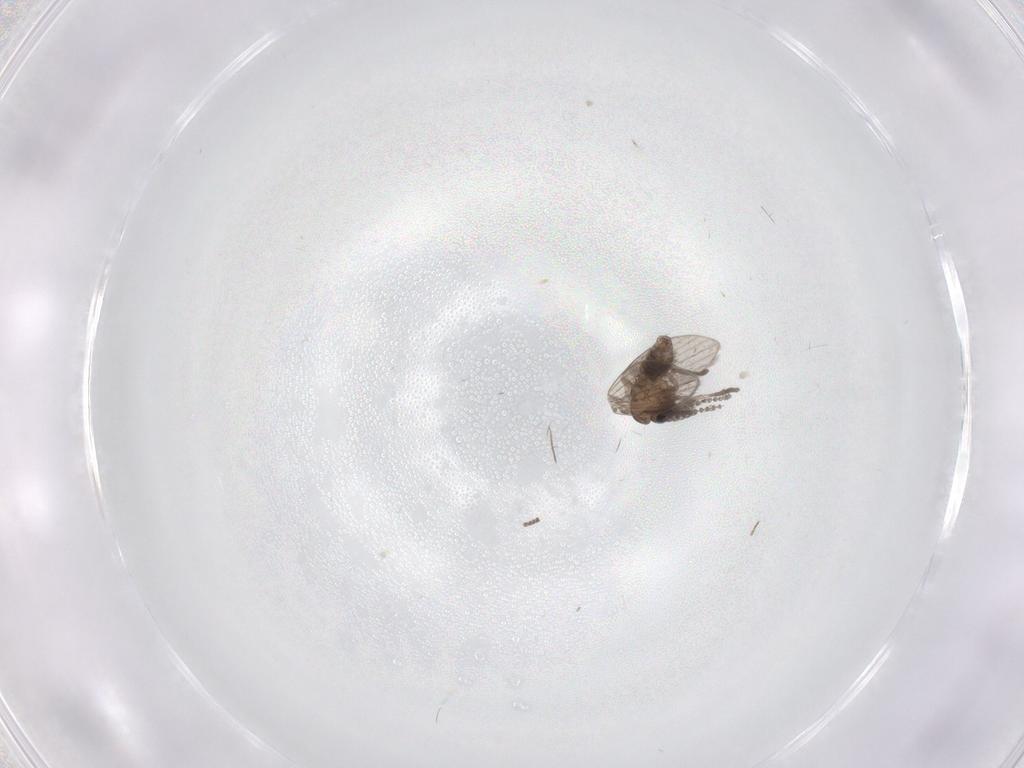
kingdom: Animalia
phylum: Arthropoda
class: Insecta
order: Diptera
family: Psychodidae
